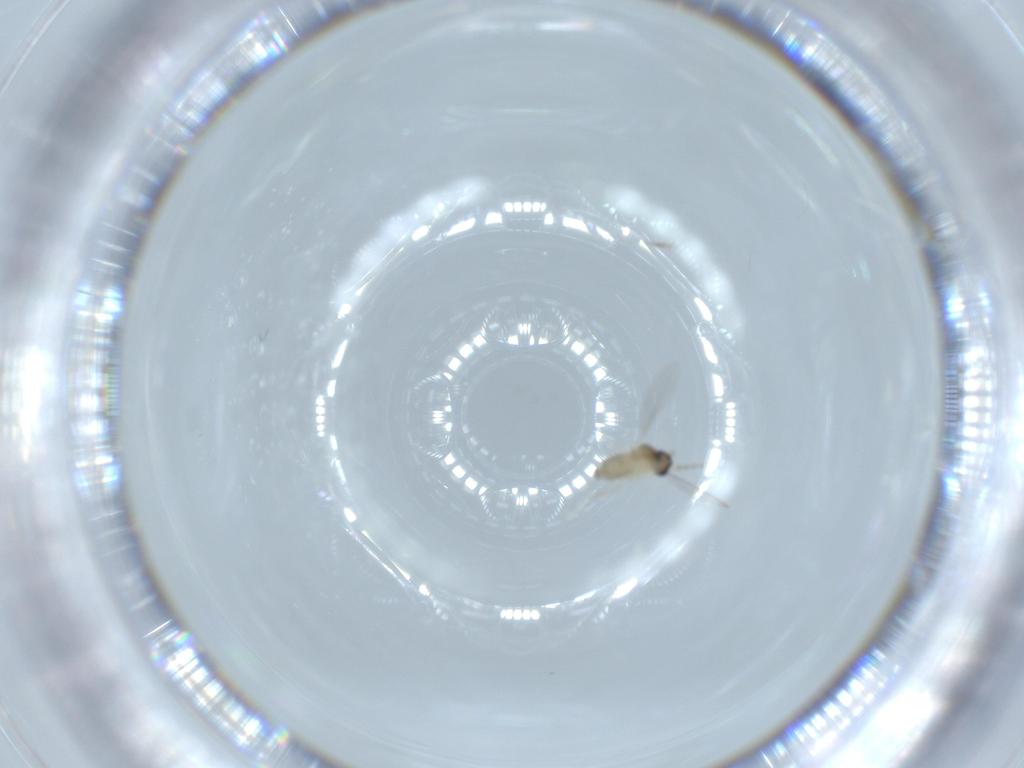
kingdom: Animalia
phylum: Arthropoda
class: Insecta
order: Diptera
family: Cecidomyiidae
